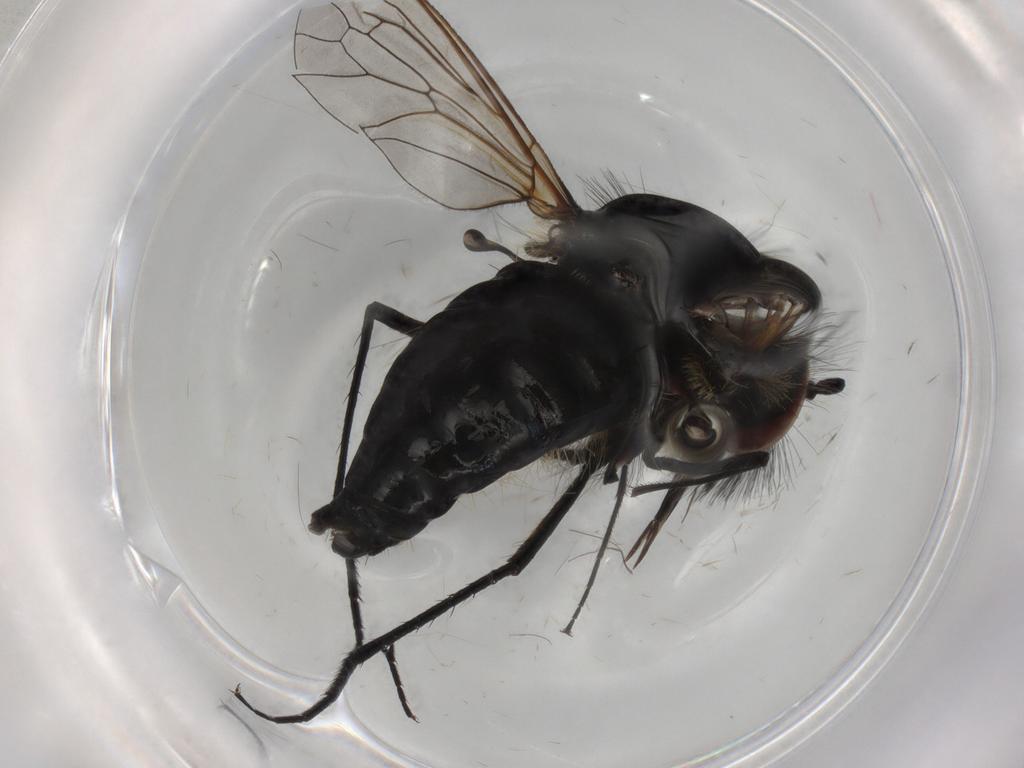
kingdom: Animalia
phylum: Arthropoda
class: Insecta
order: Diptera
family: Bombyliidae
